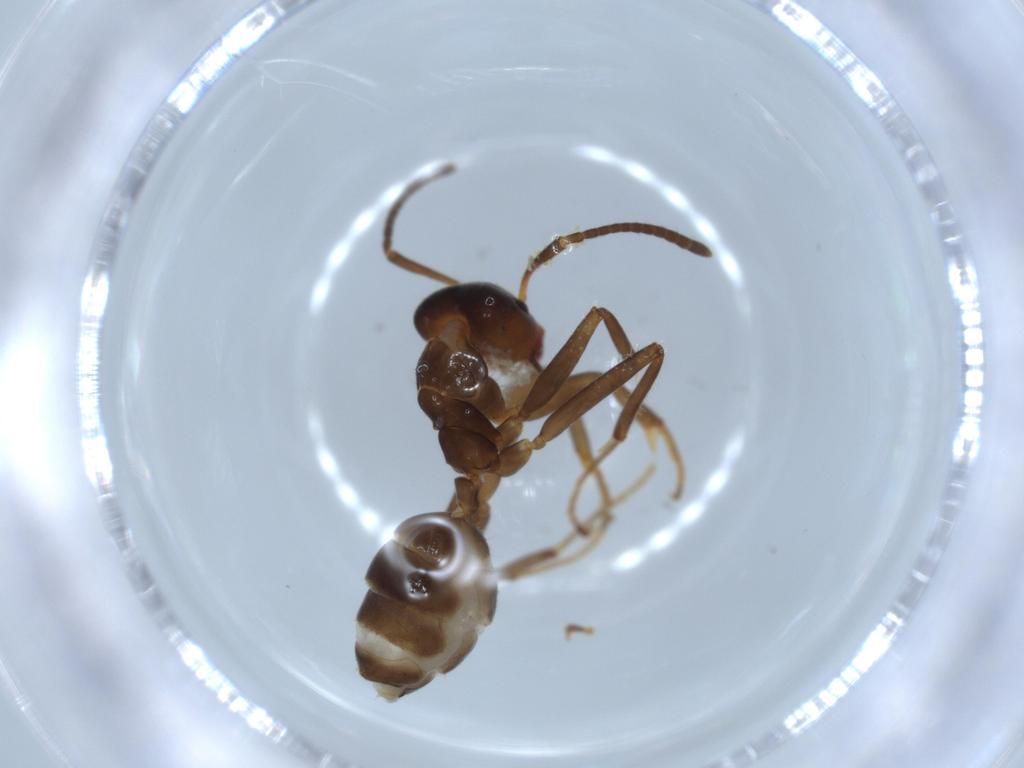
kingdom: Animalia
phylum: Arthropoda
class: Insecta
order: Hymenoptera
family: Formicidae
